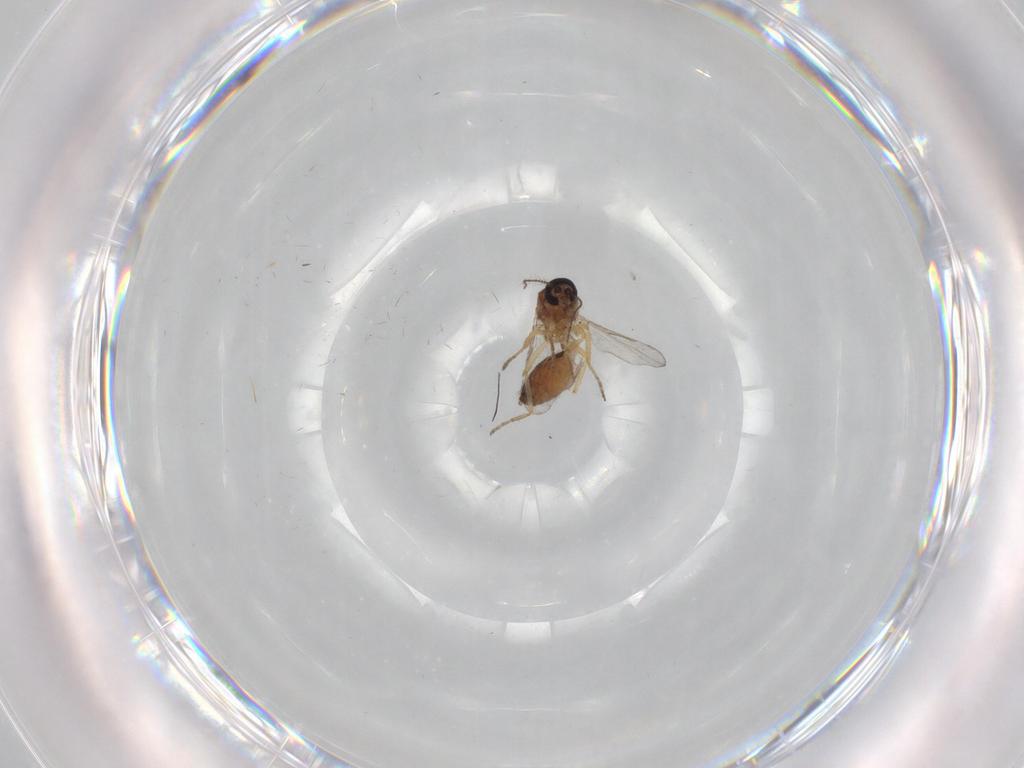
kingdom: Animalia
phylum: Arthropoda
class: Insecta
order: Diptera
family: Ceratopogonidae
